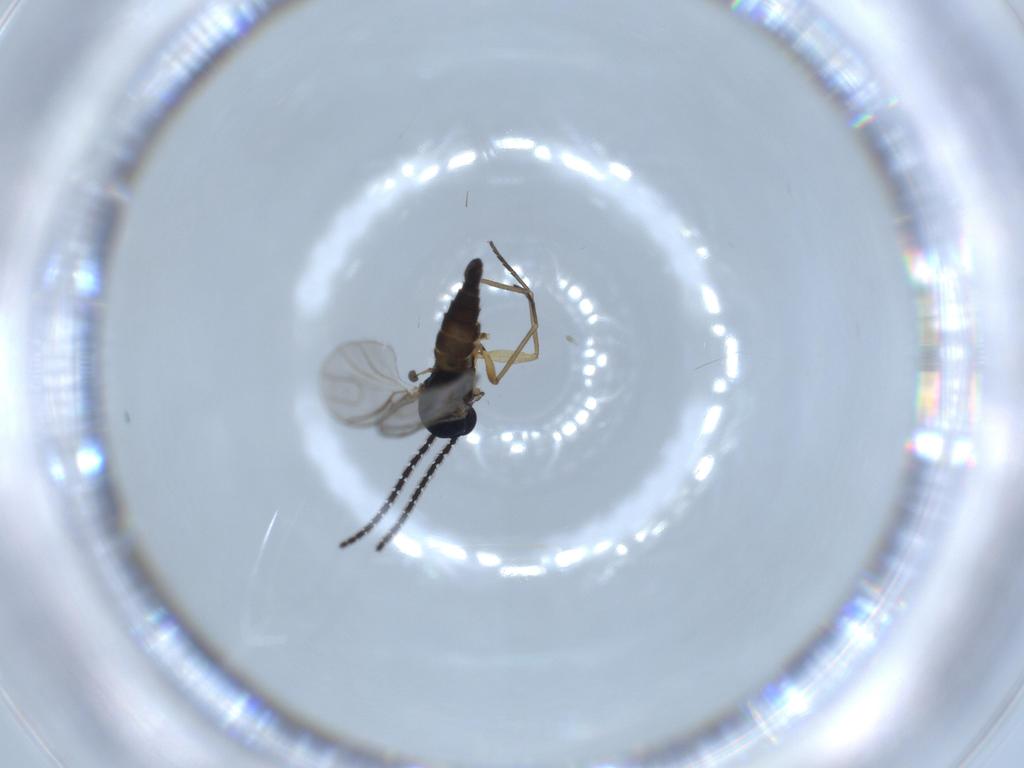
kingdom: Animalia
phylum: Arthropoda
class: Insecta
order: Diptera
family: Sciaridae
